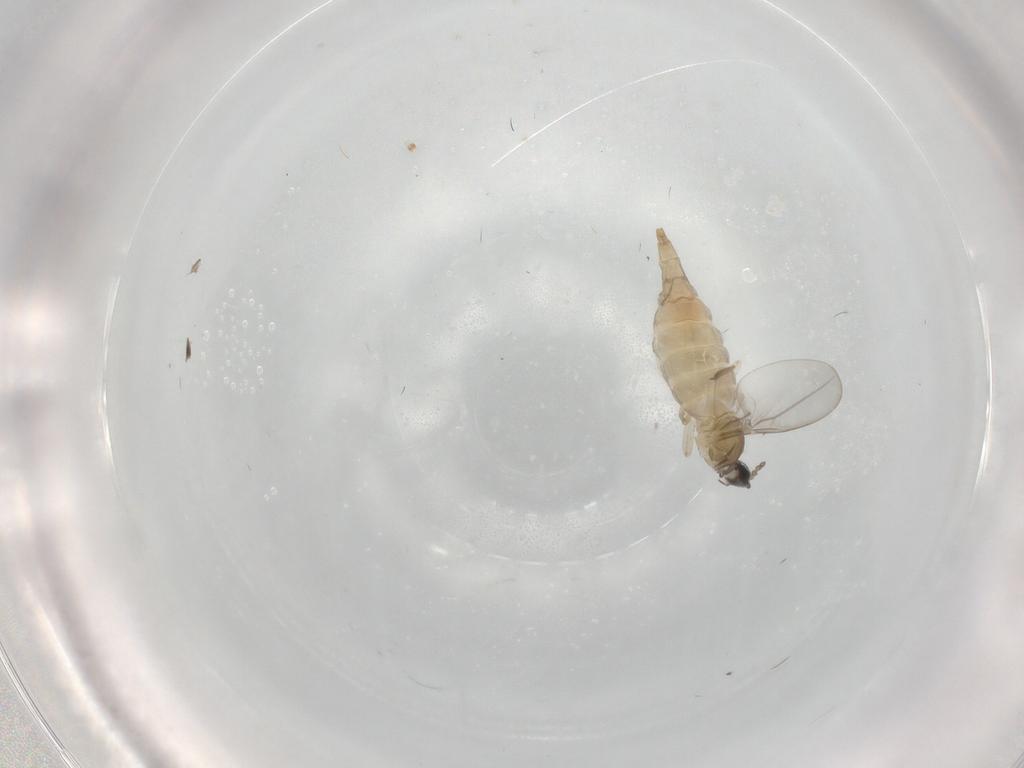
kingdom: Animalia
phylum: Arthropoda
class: Insecta
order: Diptera
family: Cecidomyiidae
